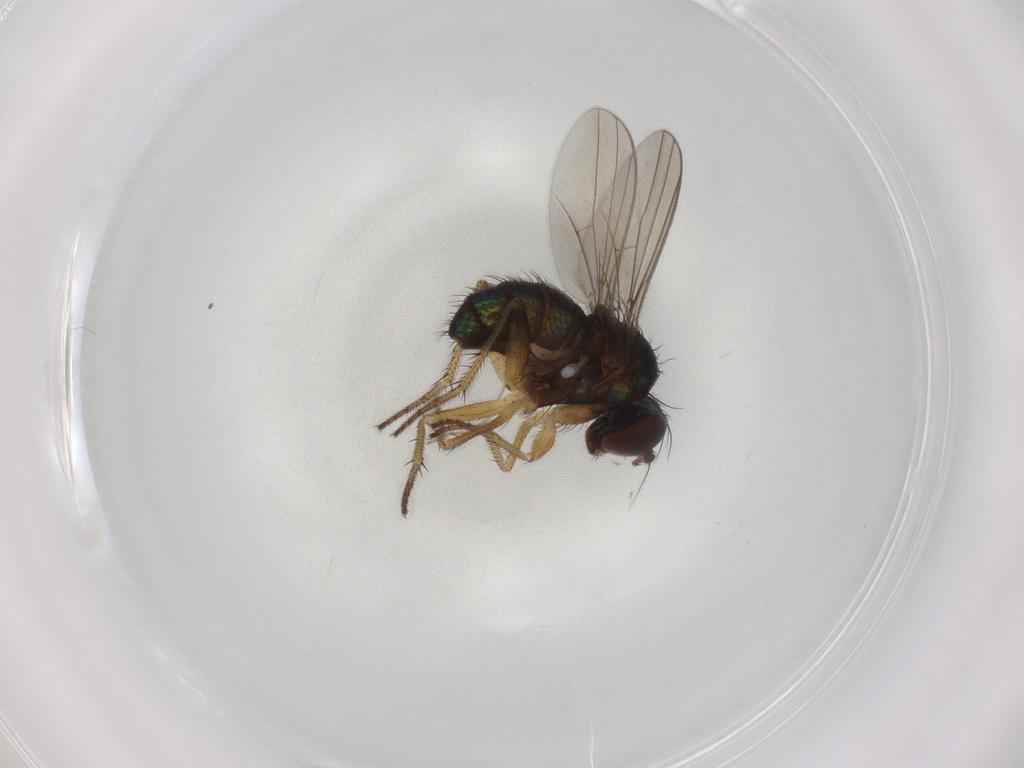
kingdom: Animalia
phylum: Arthropoda
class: Insecta
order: Diptera
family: Dolichopodidae
